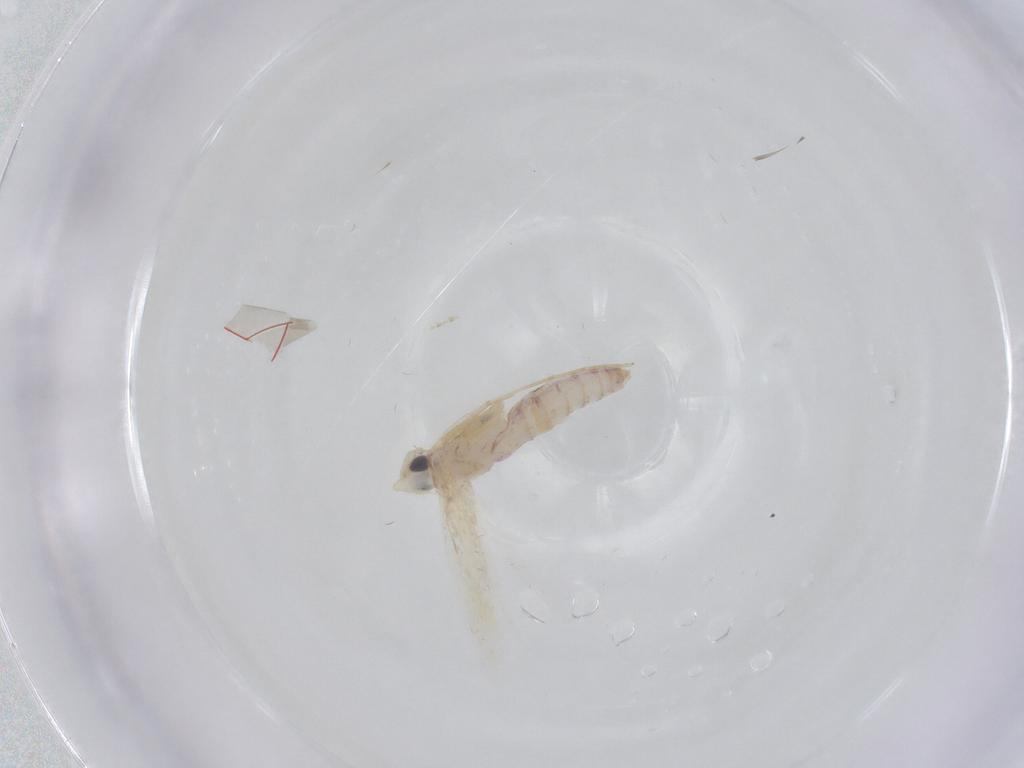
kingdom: Animalia
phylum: Arthropoda
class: Insecta
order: Lepidoptera
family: Tineidae
